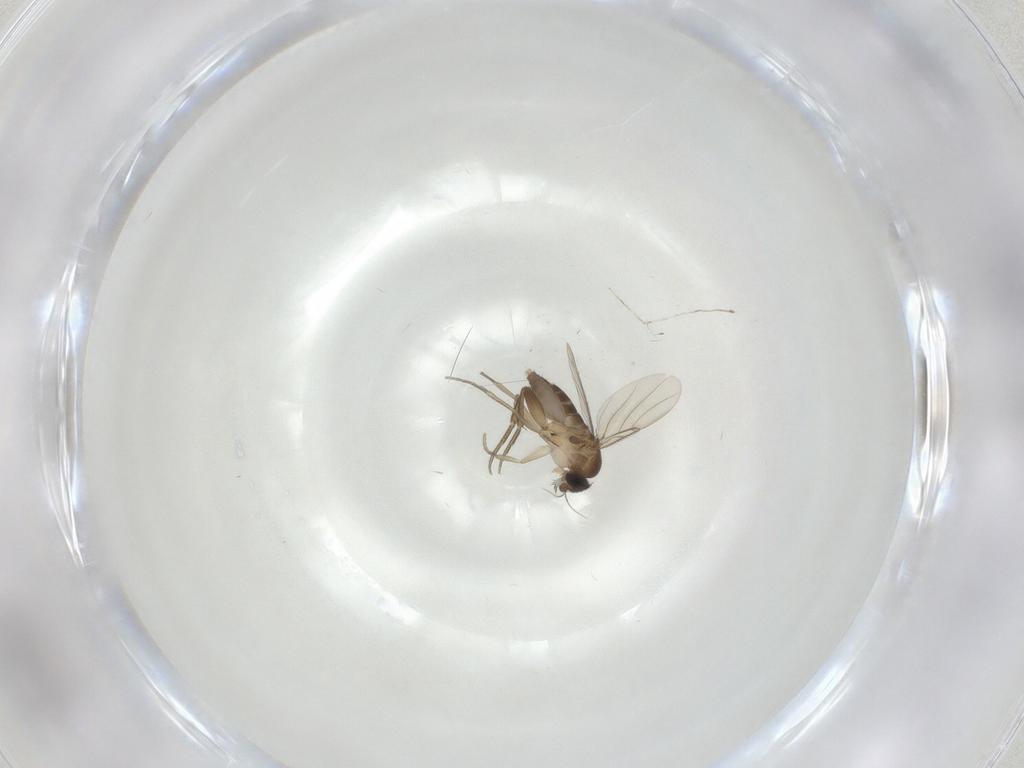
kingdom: Animalia
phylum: Arthropoda
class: Insecta
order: Diptera
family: Phoridae
